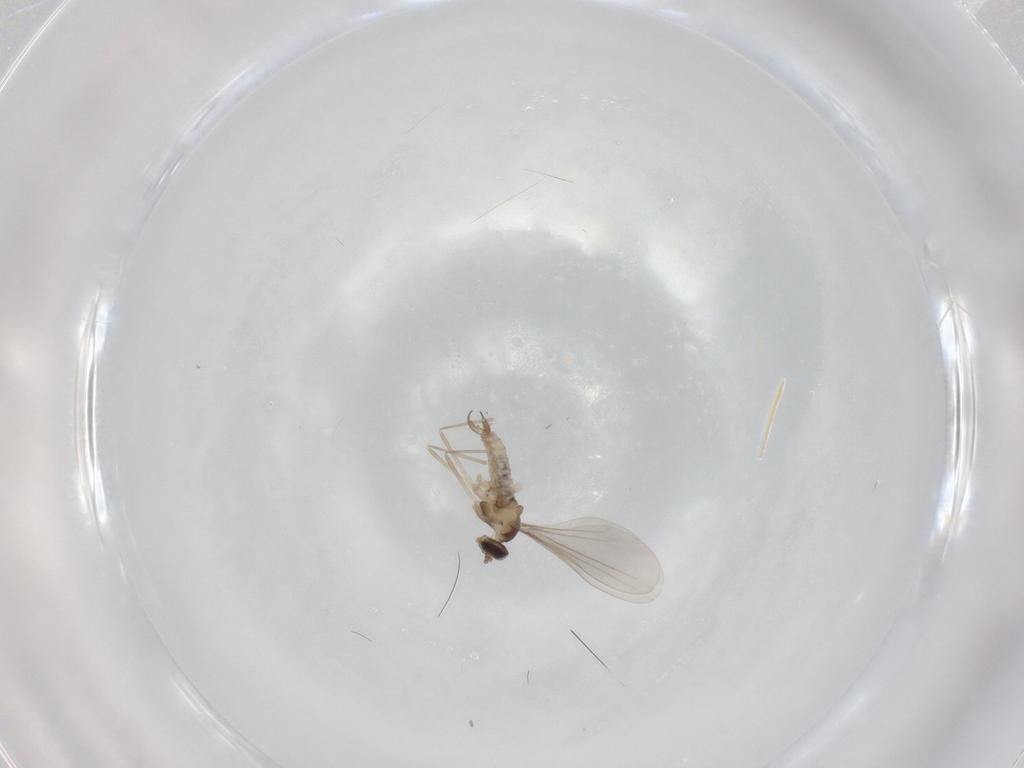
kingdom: Animalia
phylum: Arthropoda
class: Insecta
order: Diptera
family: Cecidomyiidae
